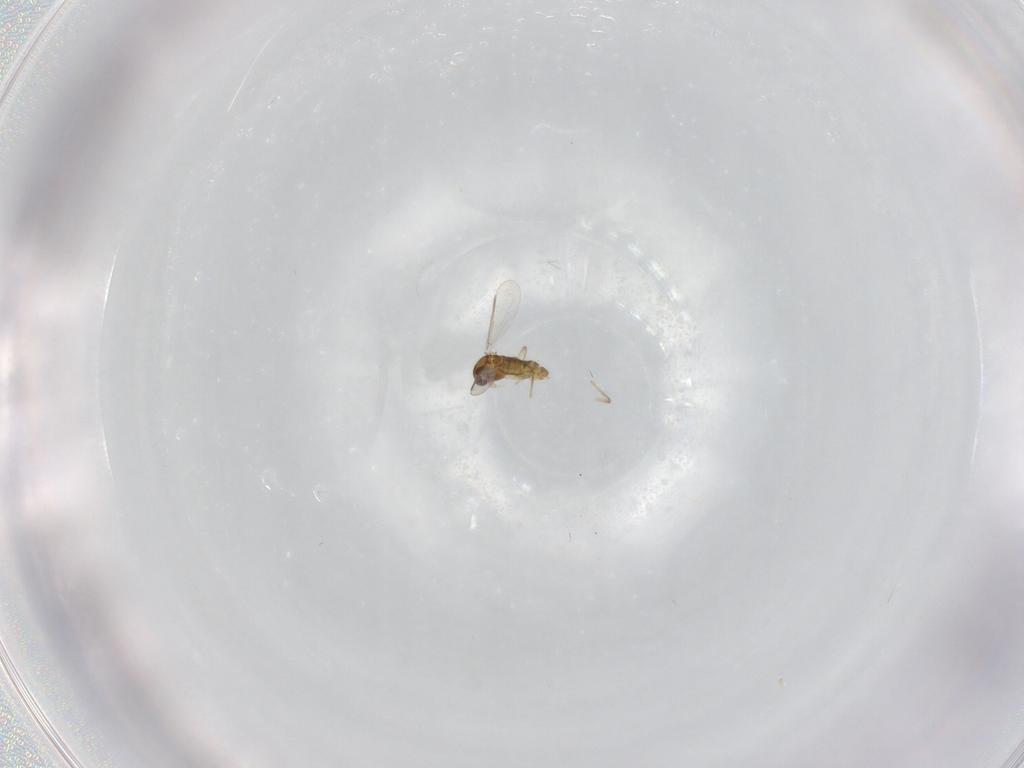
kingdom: Animalia
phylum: Arthropoda
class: Insecta
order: Diptera
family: Chironomidae
